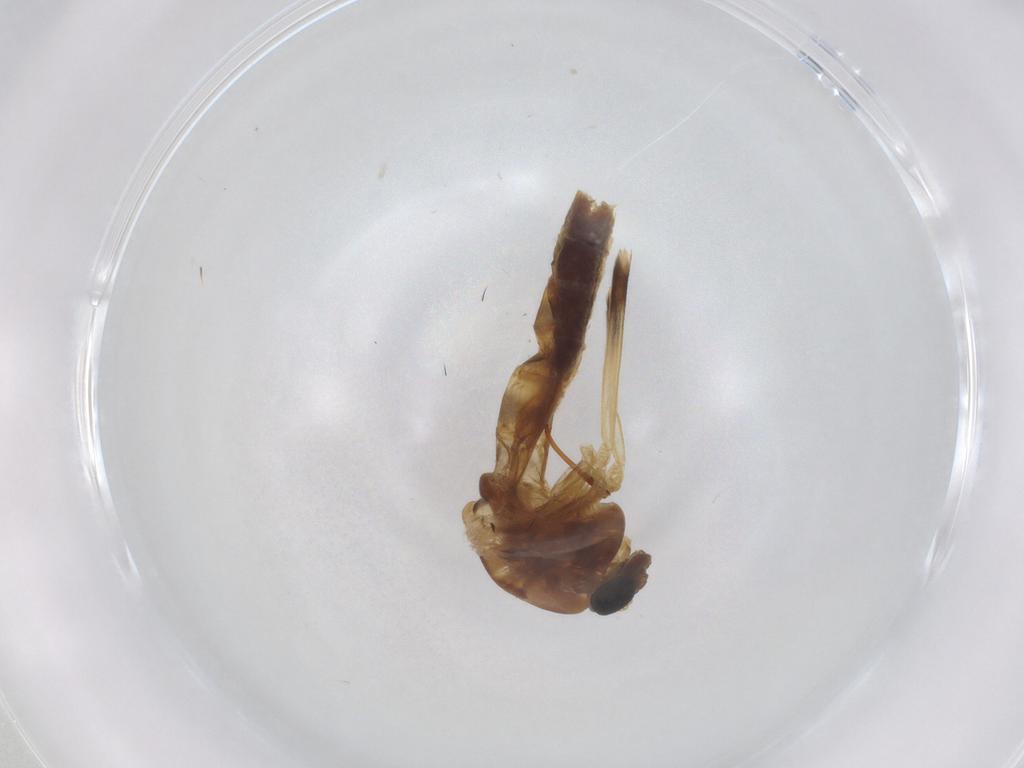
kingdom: Animalia
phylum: Arthropoda
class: Insecta
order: Diptera
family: Chironomidae
